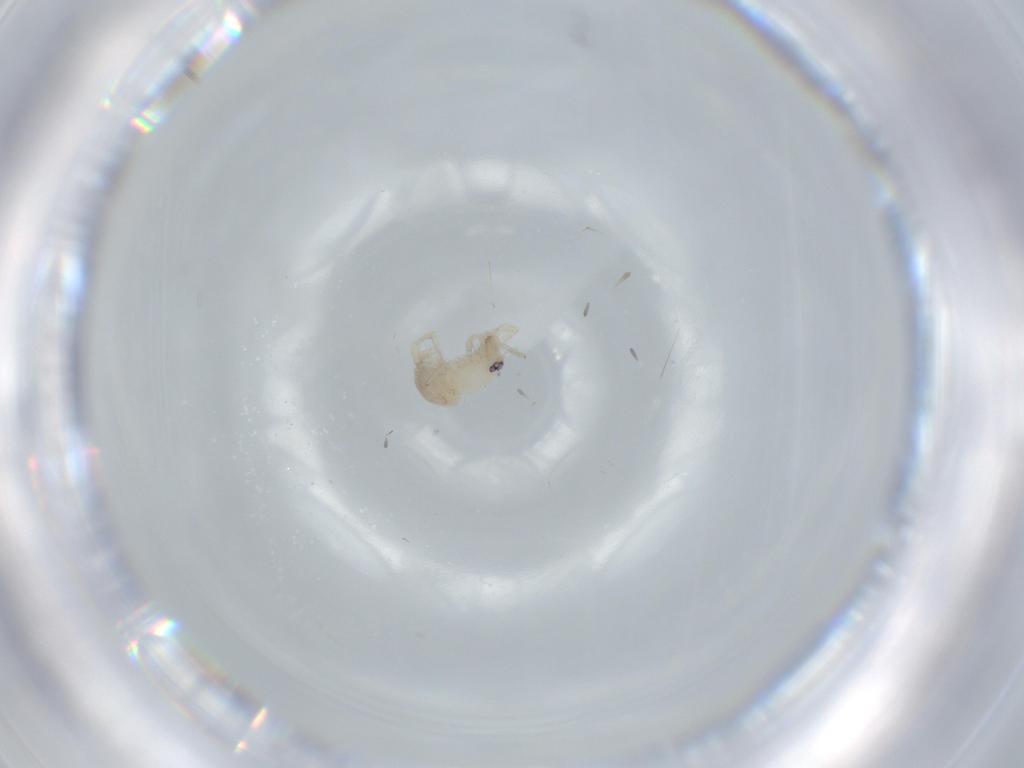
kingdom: Animalia
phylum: Arthropoda
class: Arachnida
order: Araneae
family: Oonopidae
